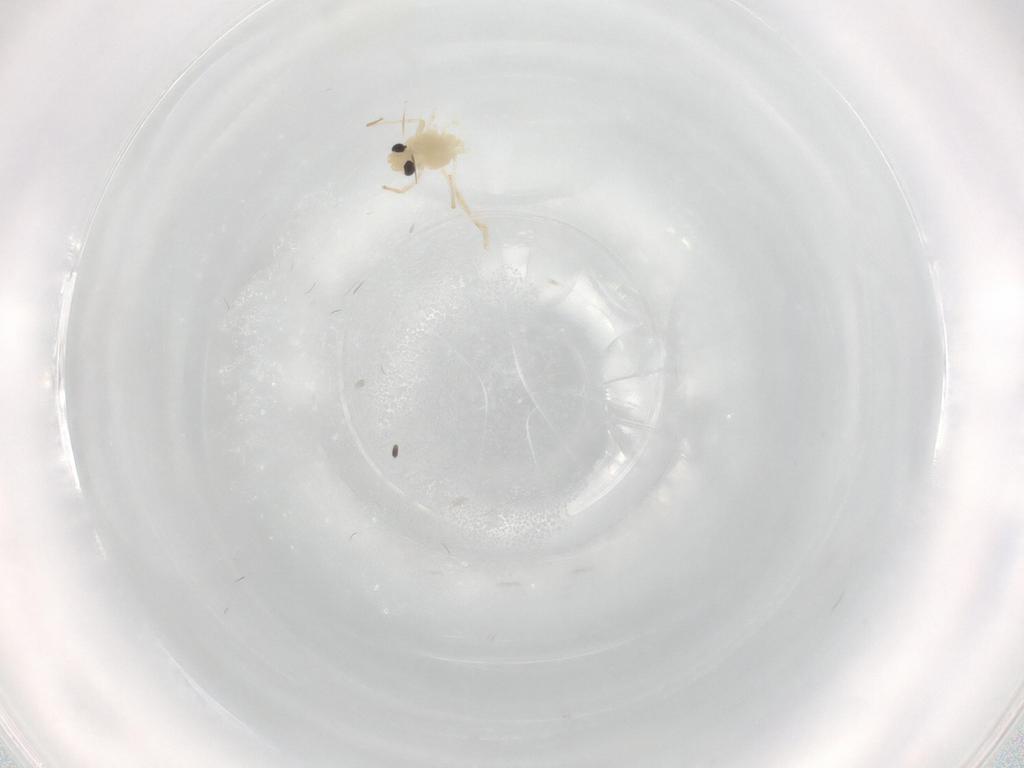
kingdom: Animalia
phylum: Arthropoda
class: Insecta
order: Diptera
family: Chironomidae
